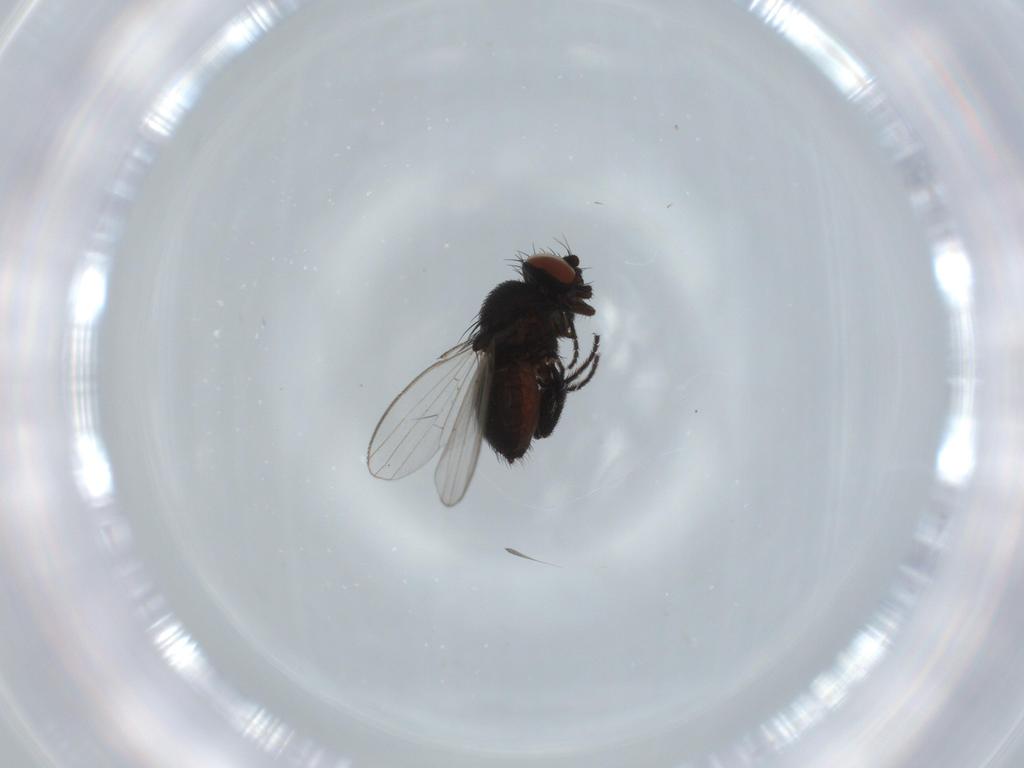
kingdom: Animalia
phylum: Arthropoda
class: Insecta
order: Diptera
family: Milichiidae
